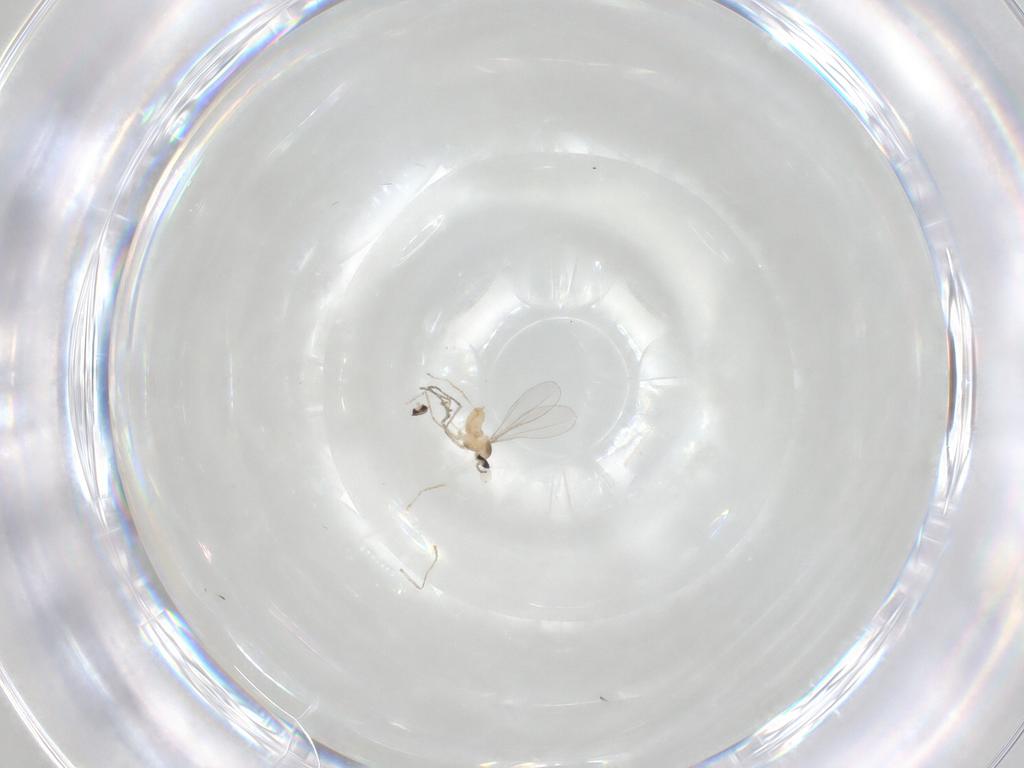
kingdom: Animalia
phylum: Arthropoda
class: Insecta
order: Diptera
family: Cecidomyiidae
